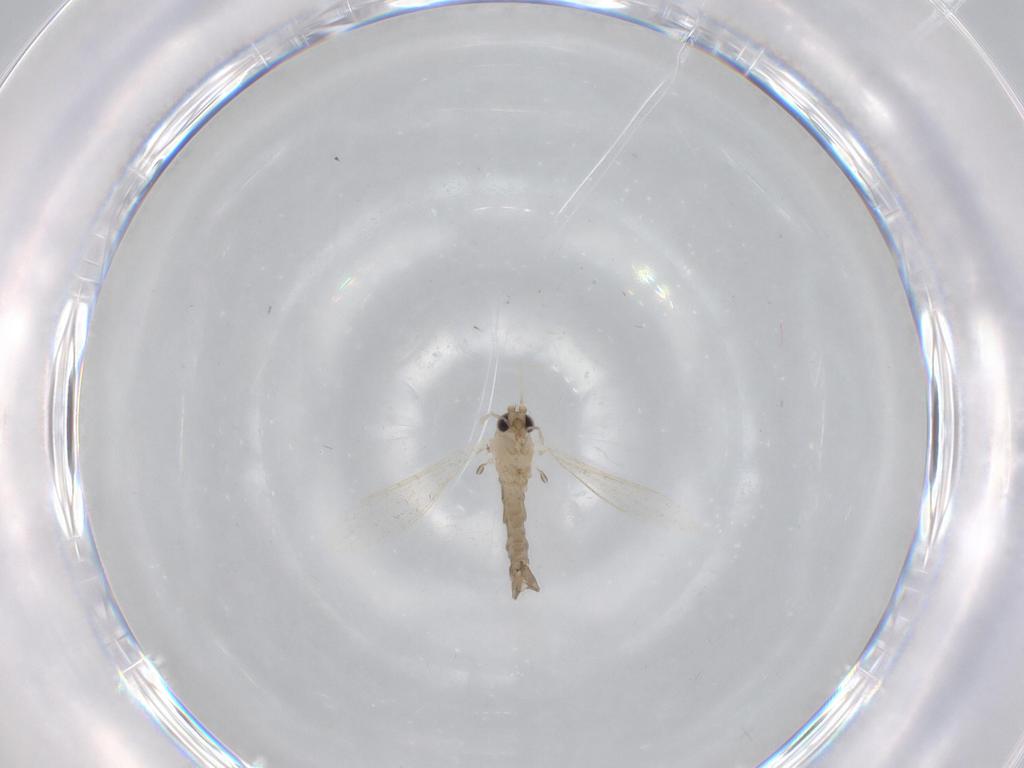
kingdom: Animalia
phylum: Arthropoda
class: Insecta
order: Diptera
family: Psychodidae
